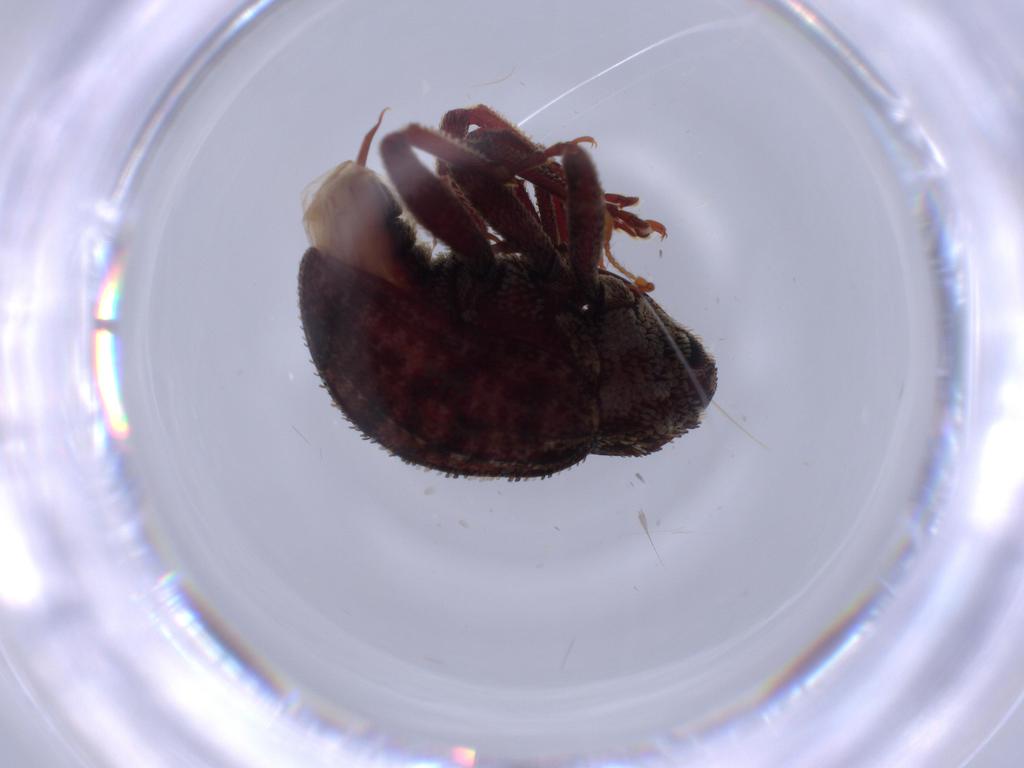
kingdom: Animalia
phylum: Arthropoda
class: Insecta
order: Coleoptera
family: Curculionidae
